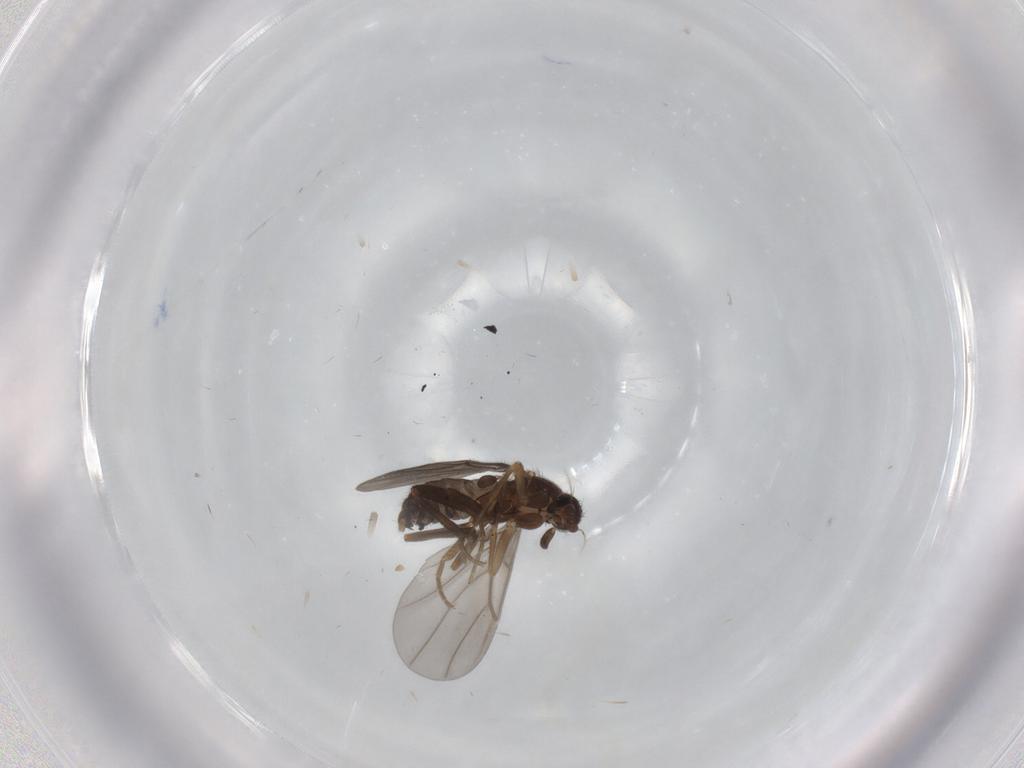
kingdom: Animalia
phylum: Arthropoda
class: Insecta
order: Diptera
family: Phoridae
